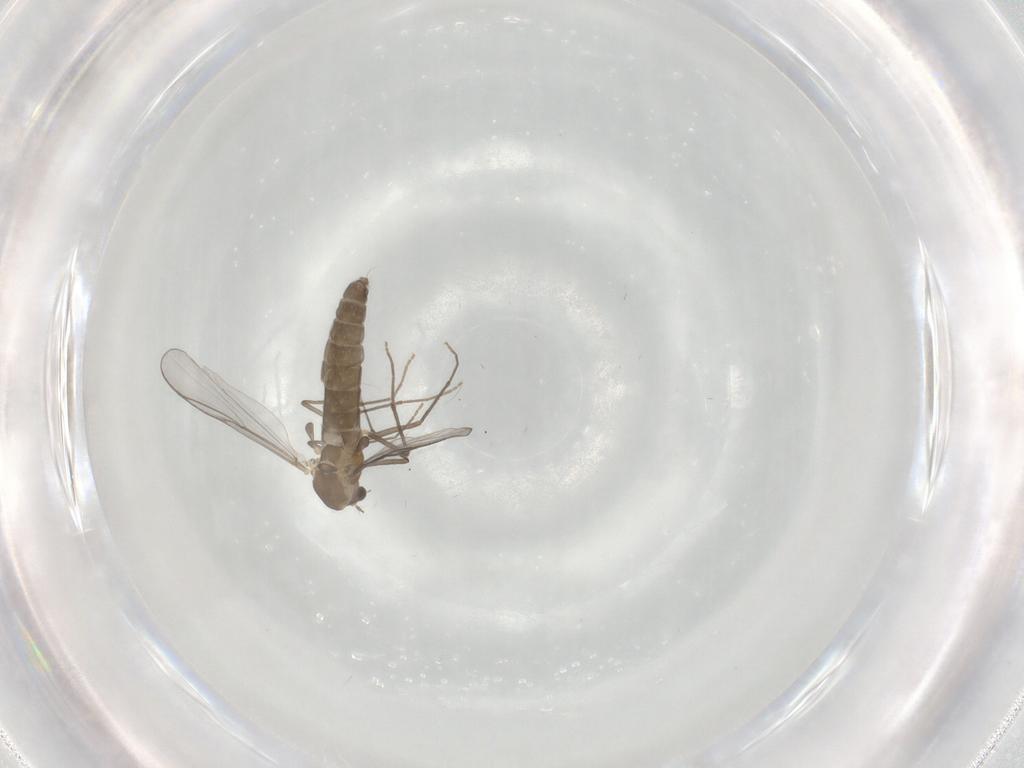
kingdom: Animalia
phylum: Arthropoda
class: Insecta
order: Diptera
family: Chironomidae
